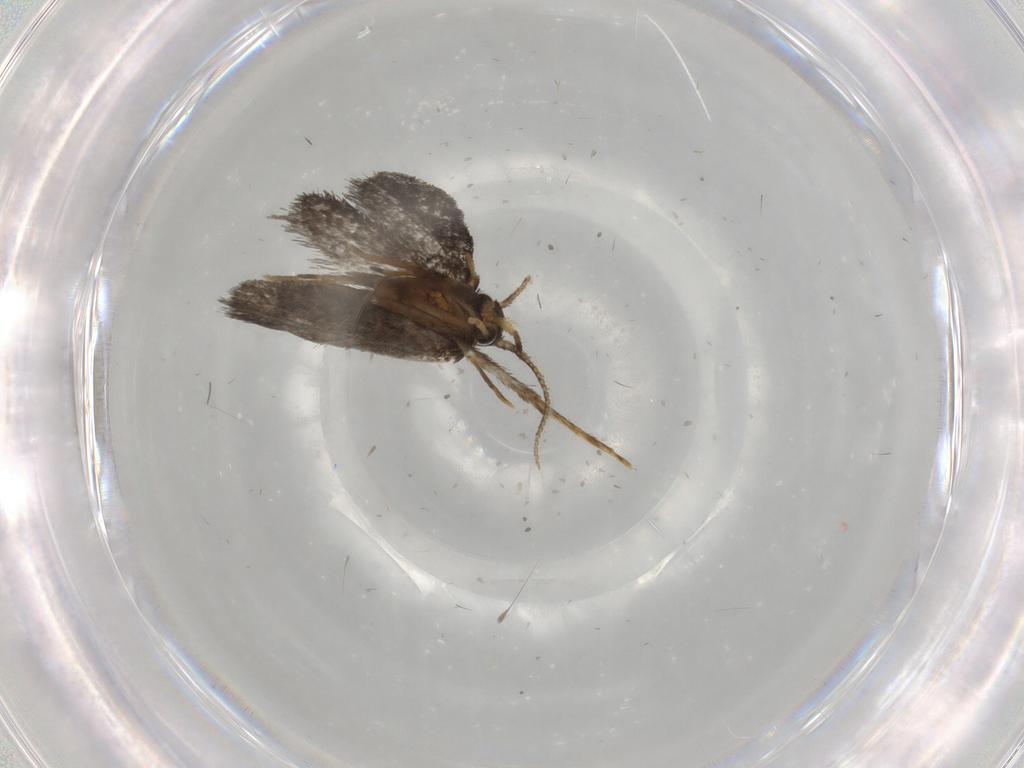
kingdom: Animalia
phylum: Arthropoda
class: Insecta
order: Lepidoptera
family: Psychidae
